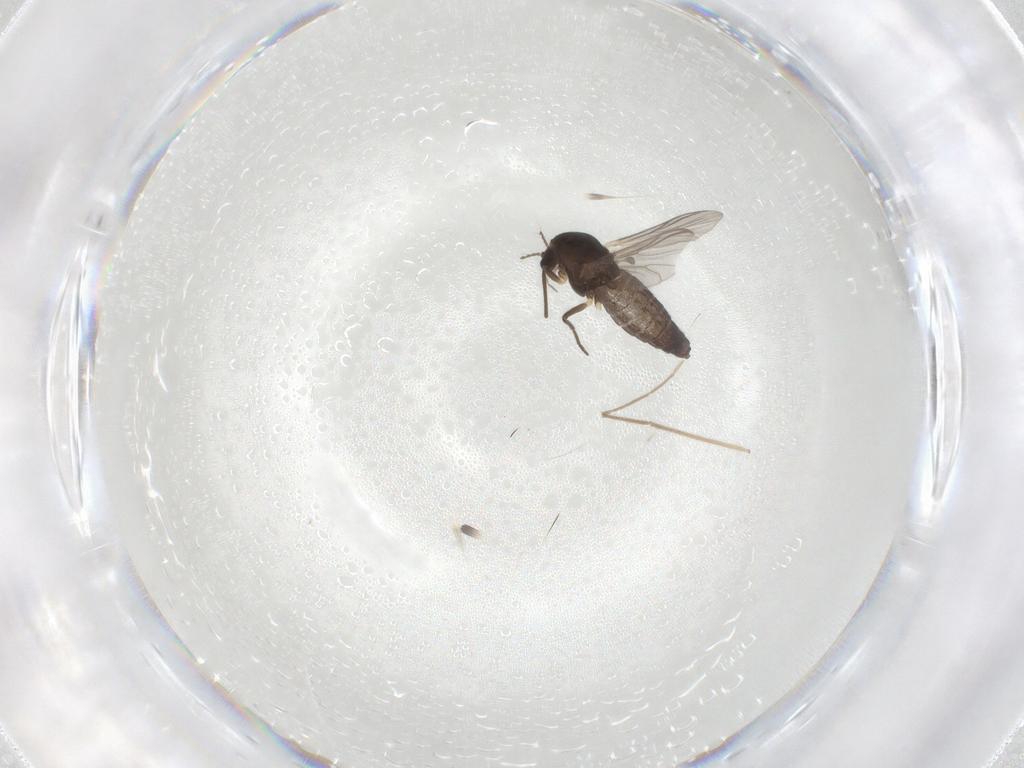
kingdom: Animalia
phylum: Arthropoda
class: Insecta
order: Diptera
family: Chironomidae
